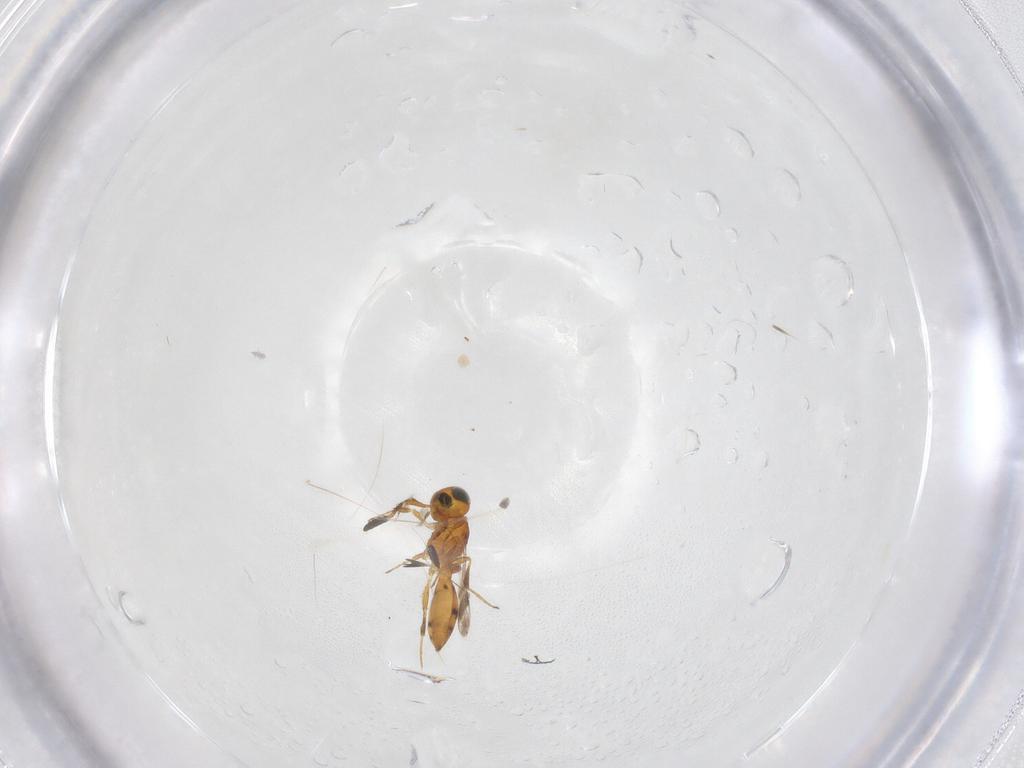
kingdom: Animalia
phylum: Arthropoda
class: Insecta
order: Hymenoptera
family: Scelionidae
